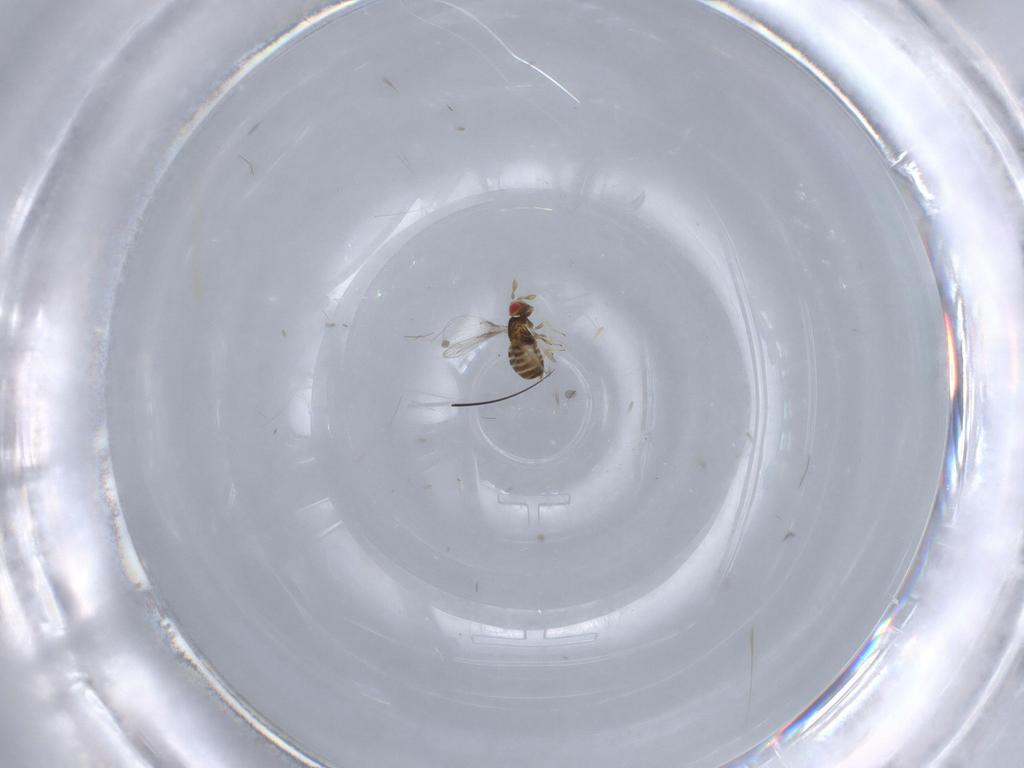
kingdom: Animalia
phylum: Arthropoda
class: Insecta
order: Hymenoptera
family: Trichogrammatidae
